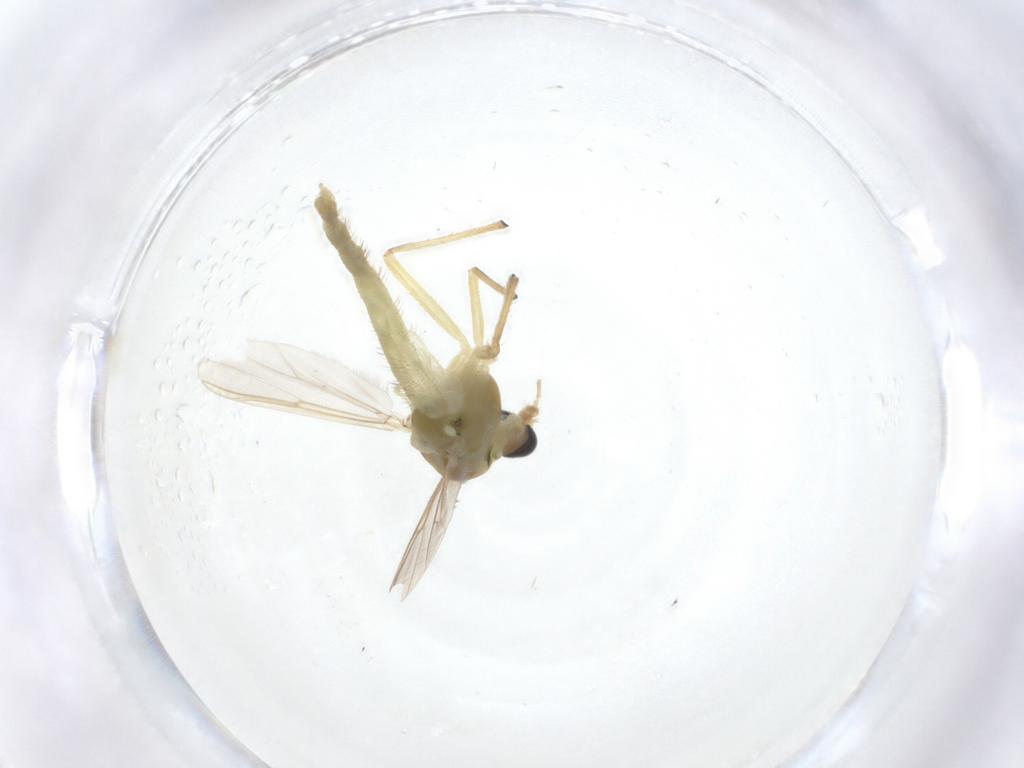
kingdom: Animalia
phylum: Arthropoda
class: Insecta
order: Diptera
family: Chironomidae
